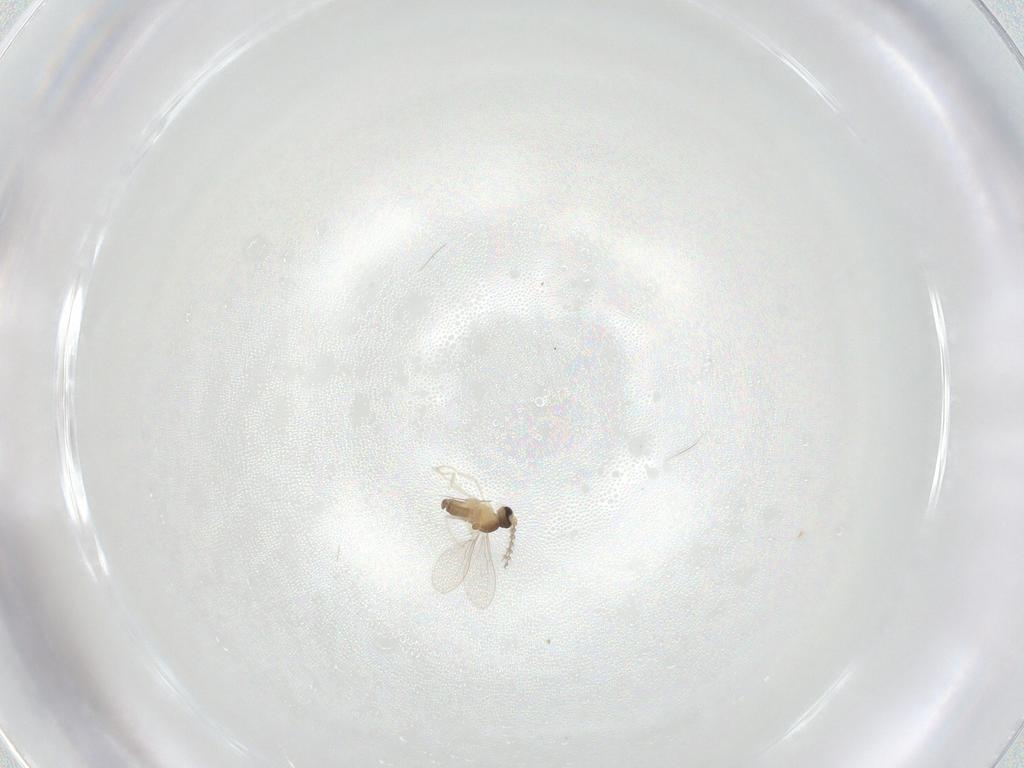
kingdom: Animalia
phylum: Arthropoda
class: Insecta
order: Diptera
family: Cecidomyiidae
